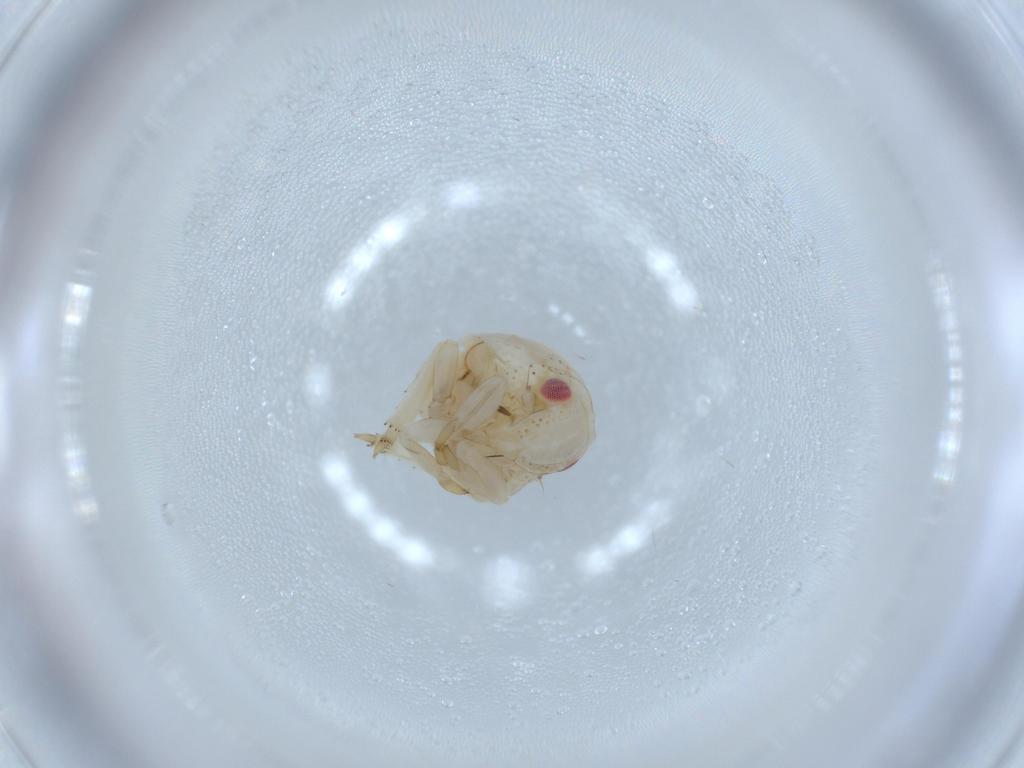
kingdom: Animalia
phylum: Arthropoda
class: Insecta
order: Hemiptera
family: Acanaloniidae
